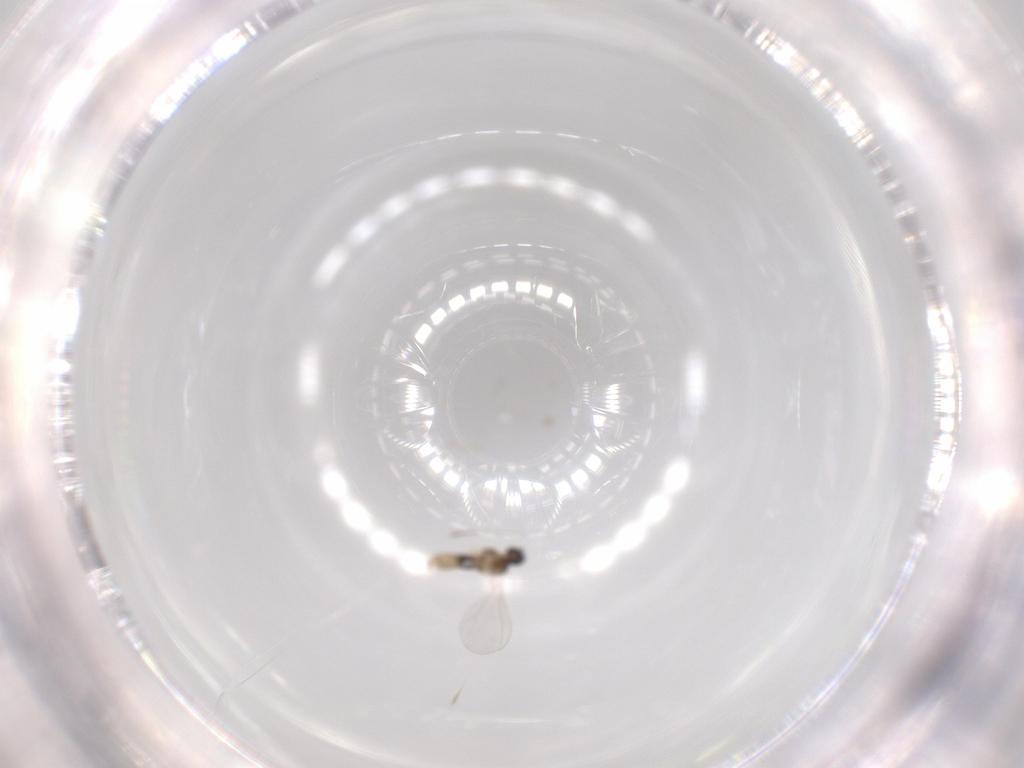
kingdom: Animalia
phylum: Arthropoda
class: Insecta
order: Diptera
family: Cecidomyiidae
